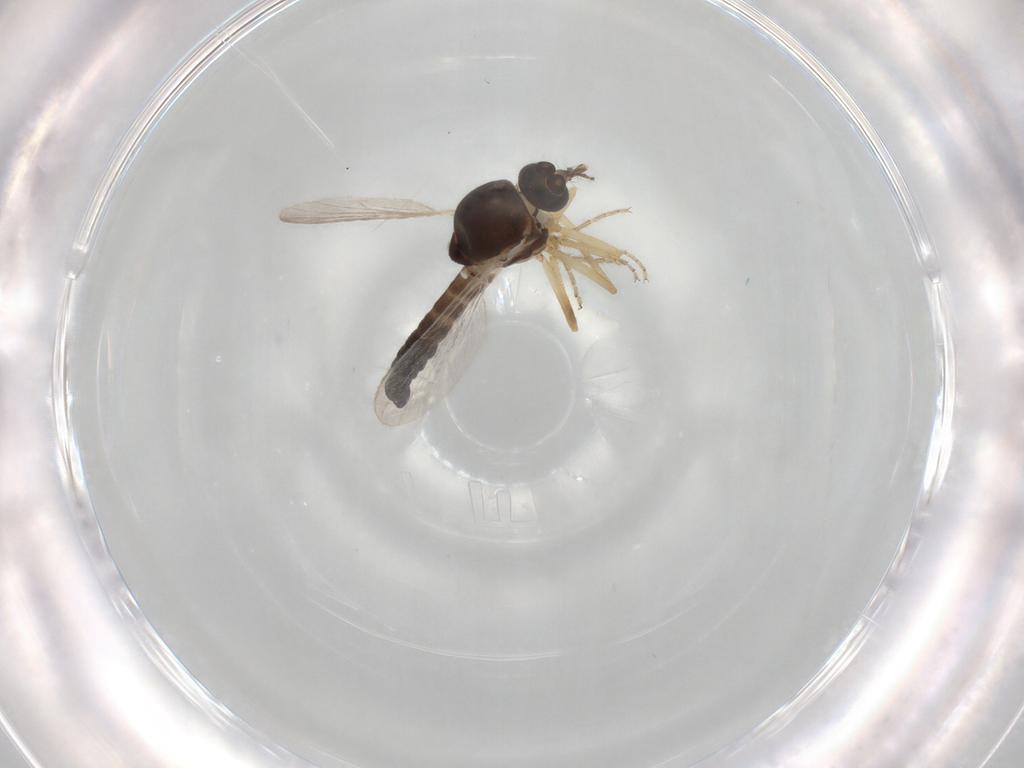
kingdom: Animalia
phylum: Arthropoda
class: Insecta
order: Diptera
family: Ceratopogonidae
